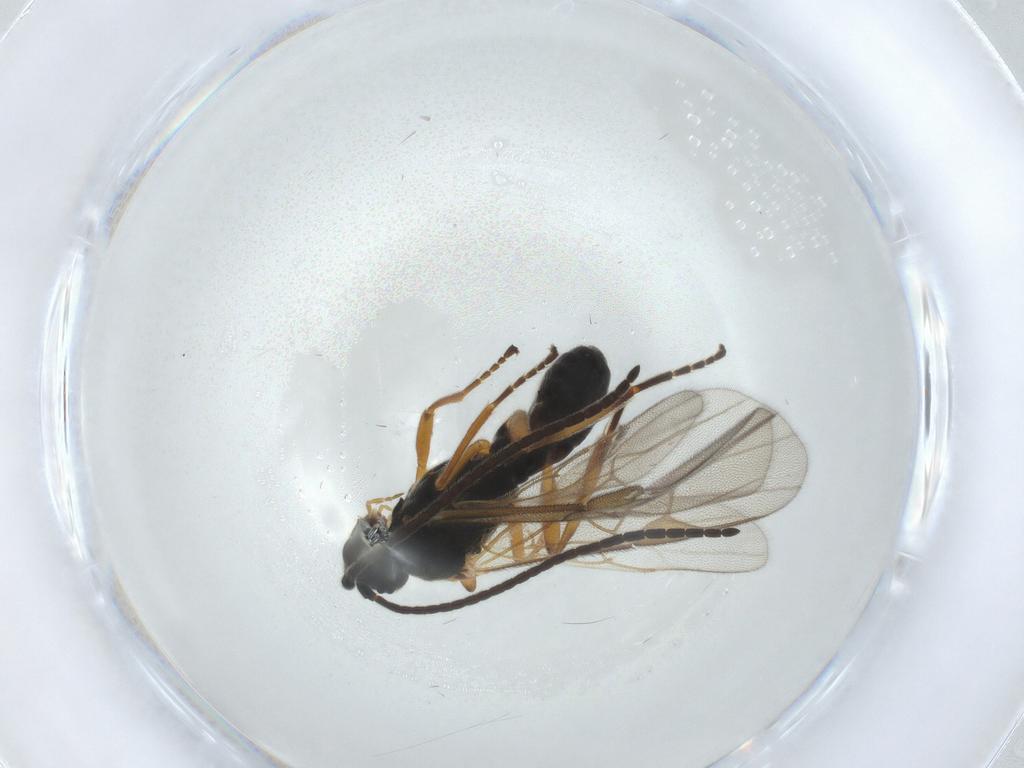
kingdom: Animalia
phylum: Arthropoda
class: Insecta
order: Hymenoptera
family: Braconidae
